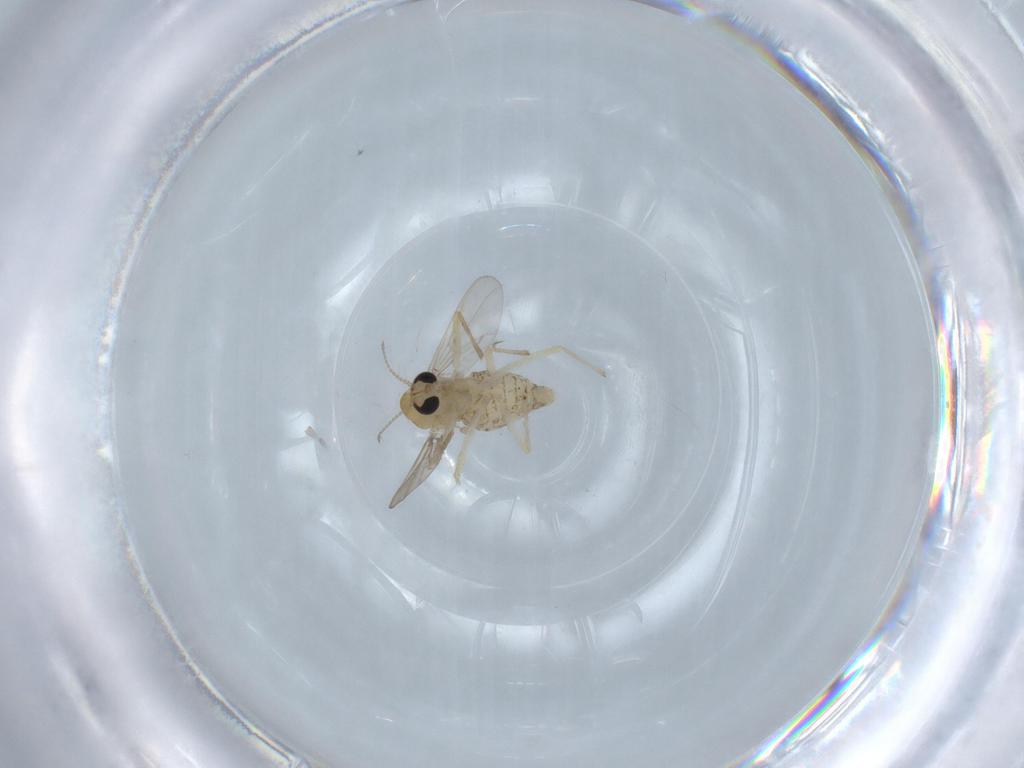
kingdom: Animalia
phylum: Arthropoda
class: Insecta
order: Diptera
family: Chironomidae
